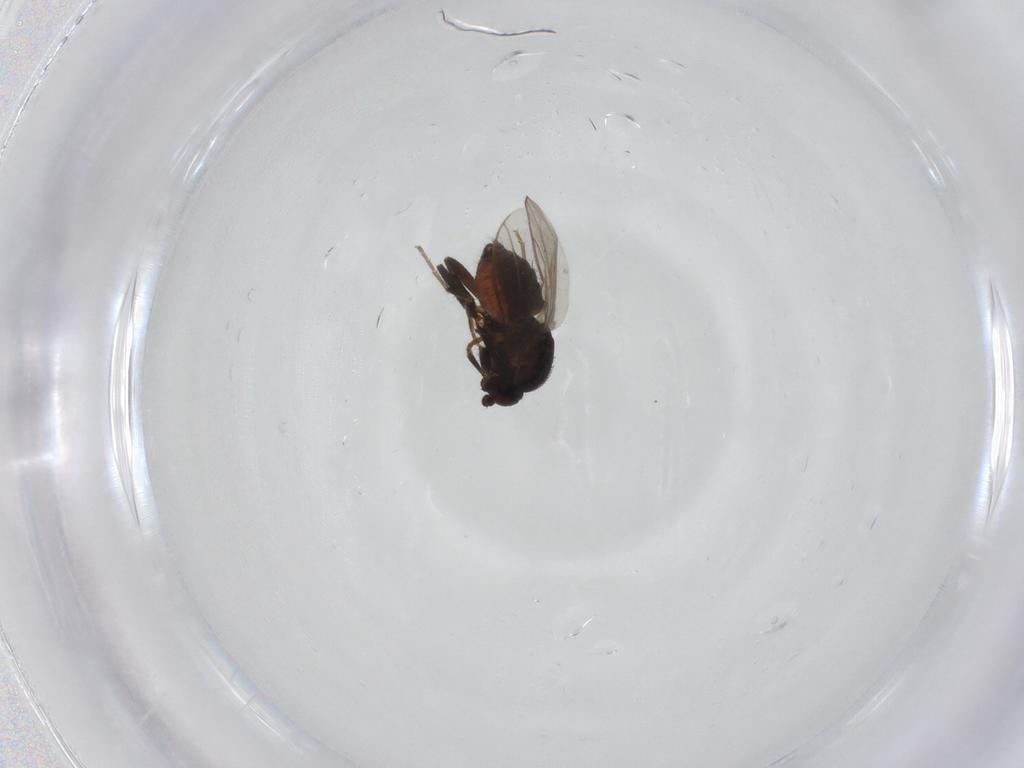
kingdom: Animalia
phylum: Arthropoda
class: Insecta
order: Diptera
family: Sphaeroceridae
